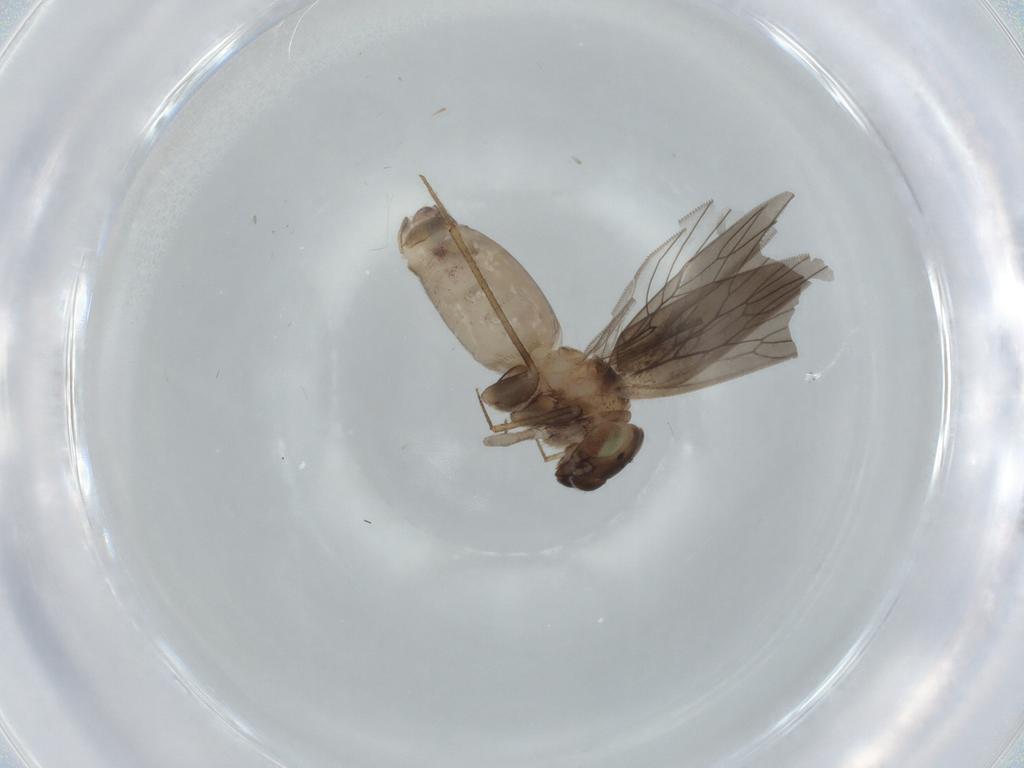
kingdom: Animalia
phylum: Arthropoda
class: Insecta
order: Psocodea
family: Lepidopsocidae
